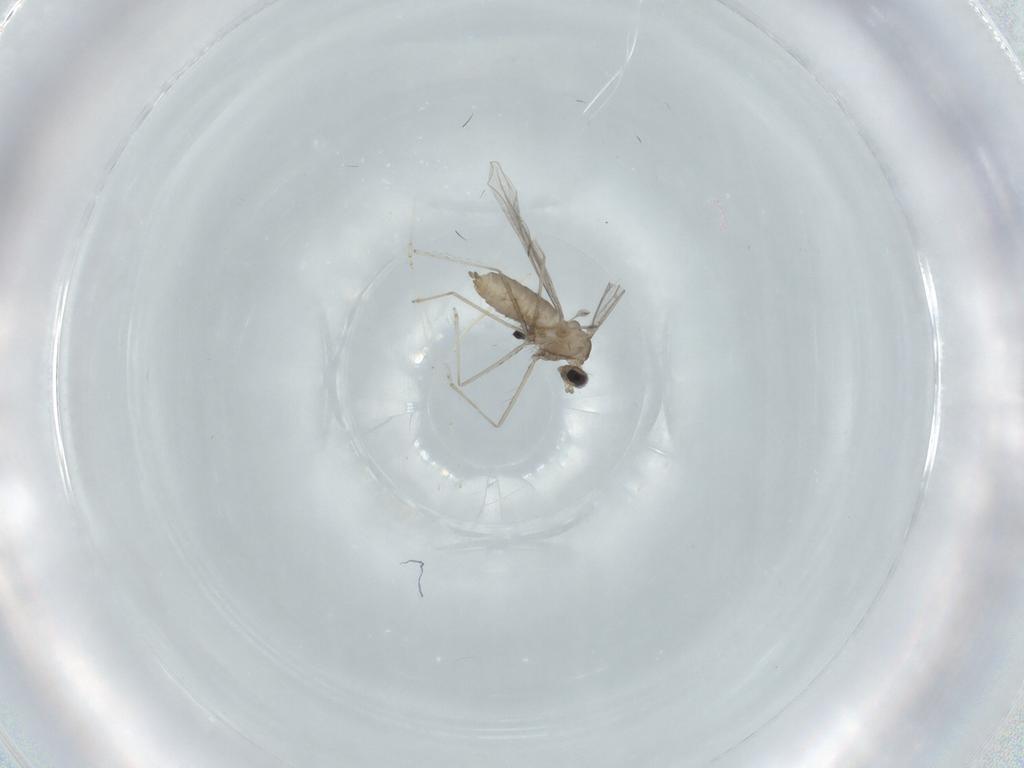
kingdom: Animalia
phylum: Arthropoda
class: Insecta
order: Diptera
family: Cecidomyiidae
